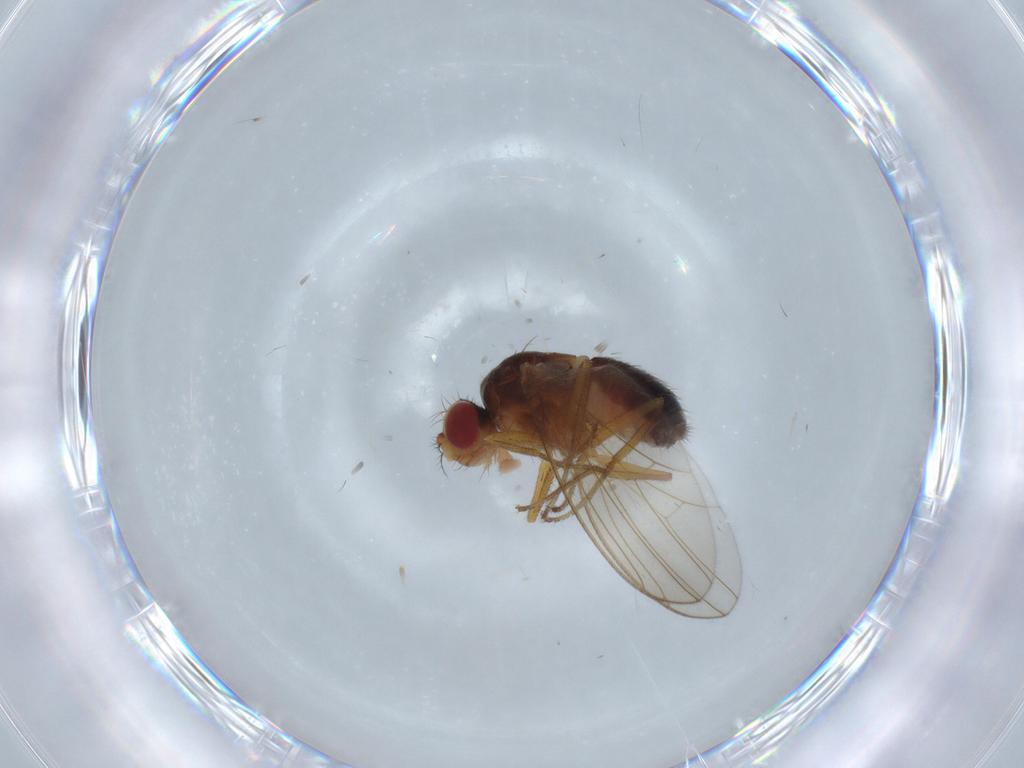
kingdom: Animalia
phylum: Arthropoda
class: Insecta
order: Diptera
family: Drosophilidae
